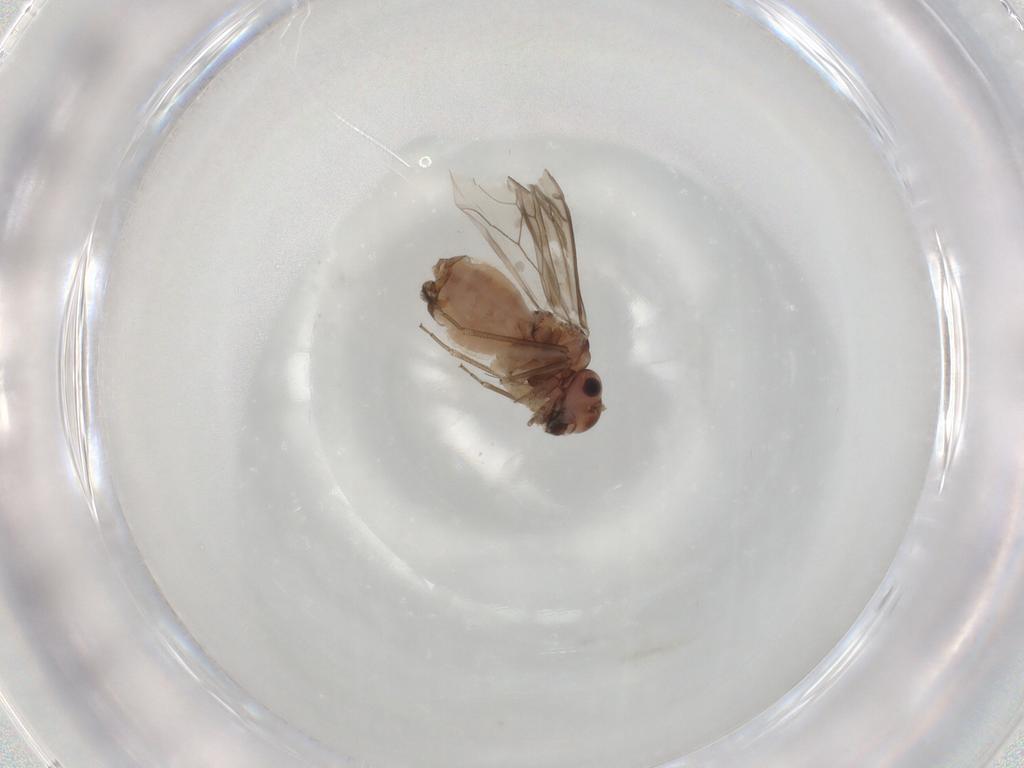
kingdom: Animalia
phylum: Arthropoda
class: Insecta
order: Psocodea
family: Peripsocidae
